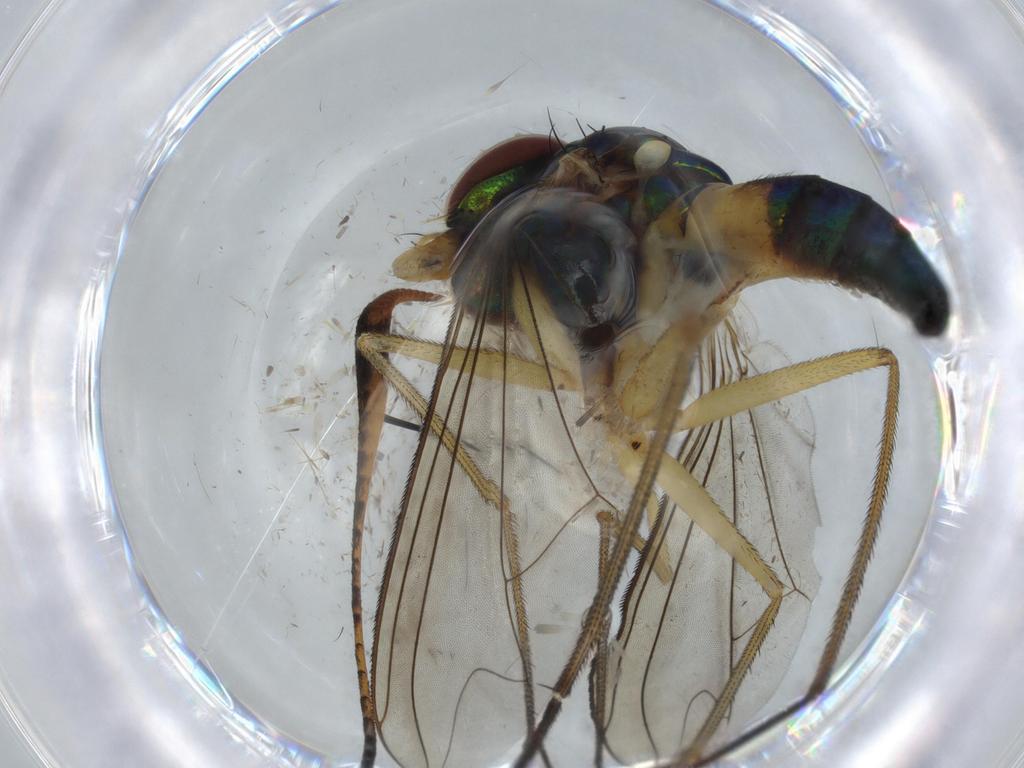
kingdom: Animalia
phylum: Arthropoda
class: Insecta
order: Diptera
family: Dolichopodidae
